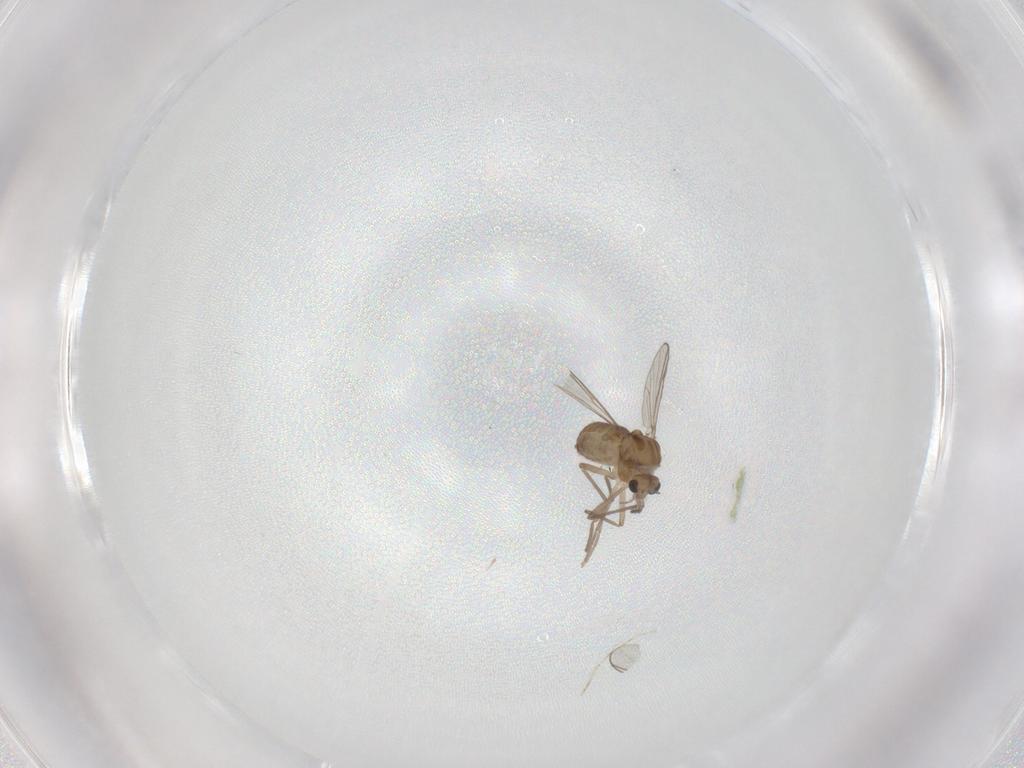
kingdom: Animalia
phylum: Arthropoda
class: Insecta
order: Diptera
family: Chironomidae
